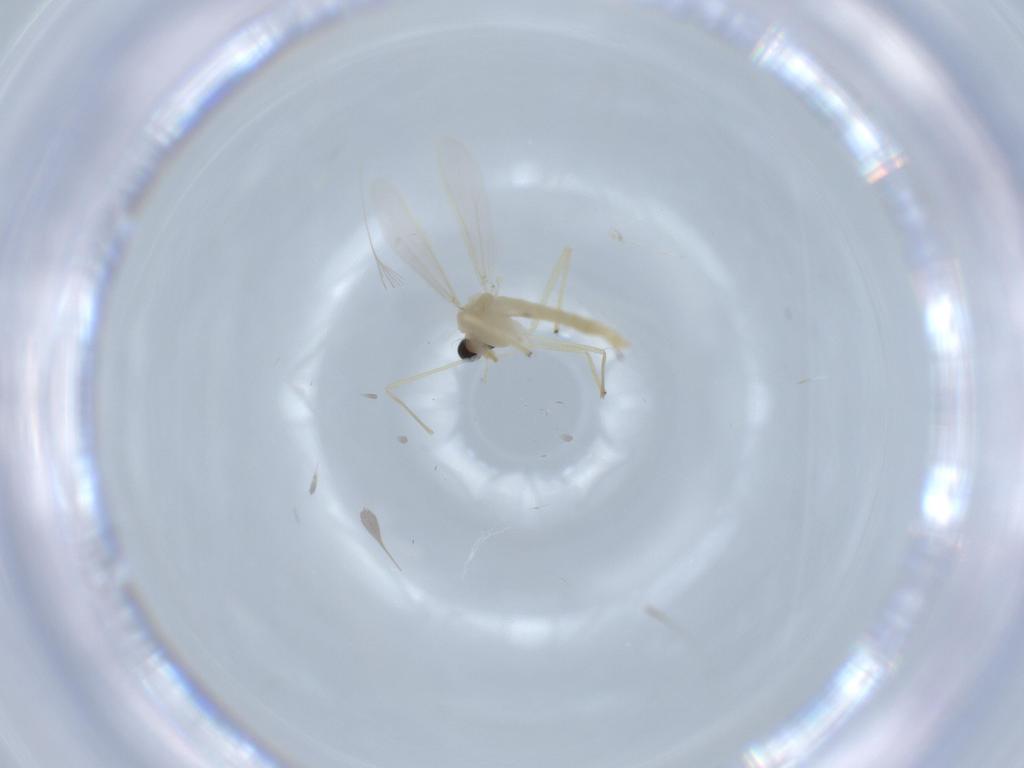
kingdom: Animalia
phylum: Arthropoda
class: Insecta
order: Diptera
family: Chironomidae
